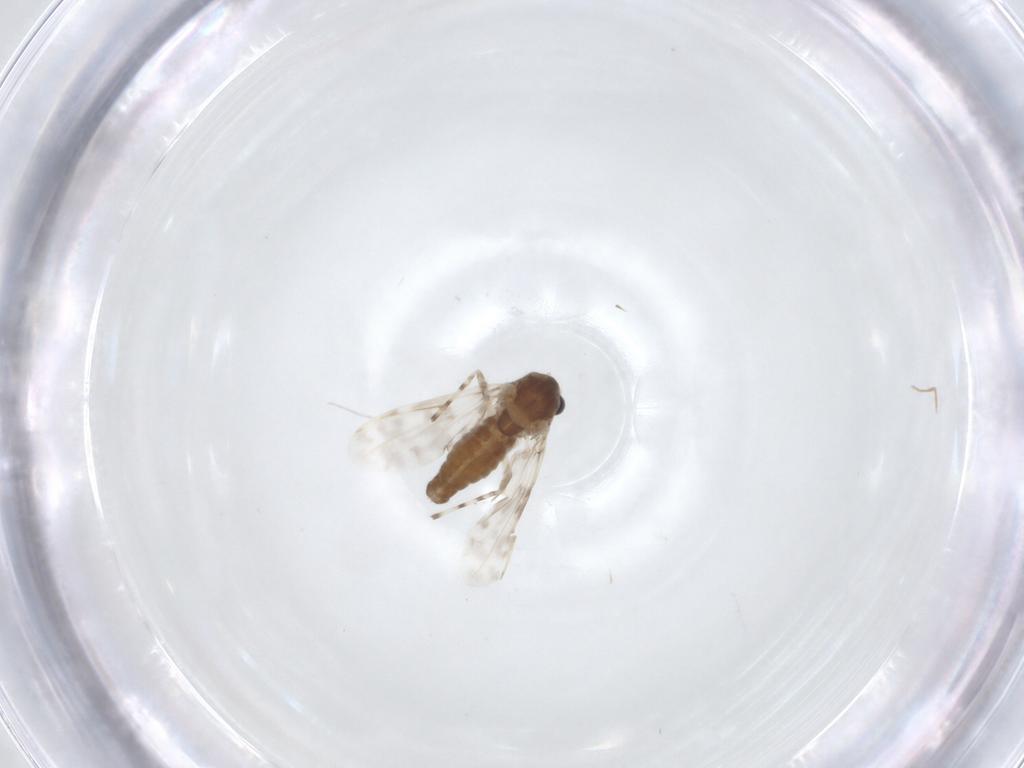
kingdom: Animalia
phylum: Arthropoda
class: Insecta
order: Diptera
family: Chironomidae
